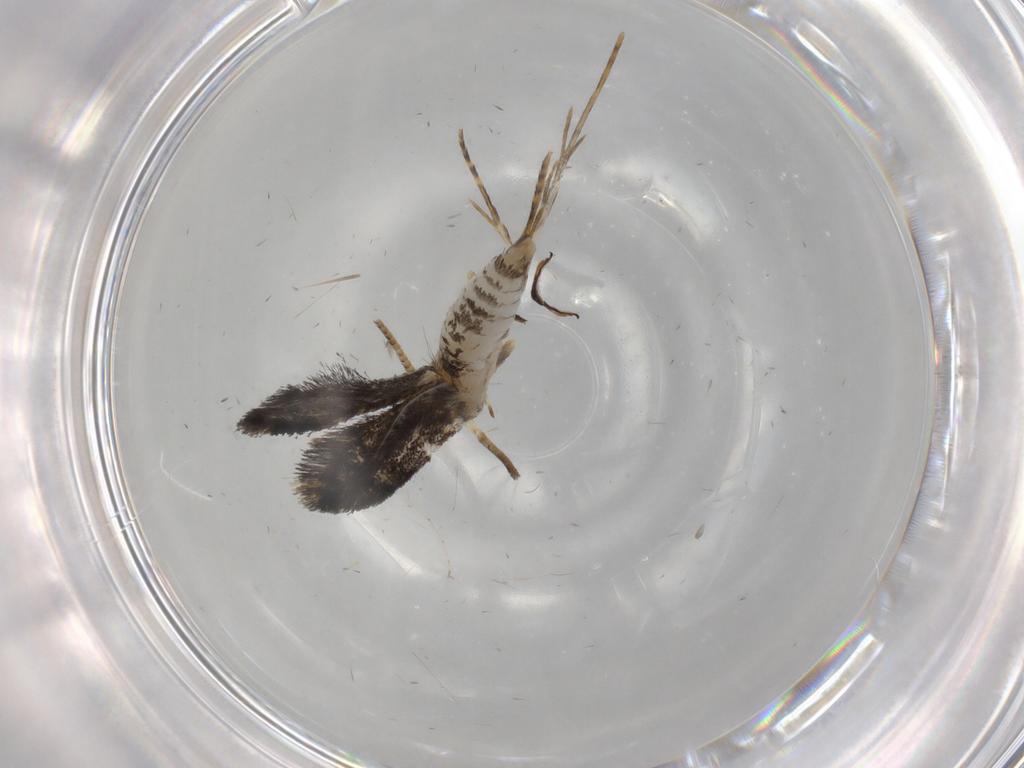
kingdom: Animalia
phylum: Arthropoda
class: Insecta
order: Lepidoptera
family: Tineidae
